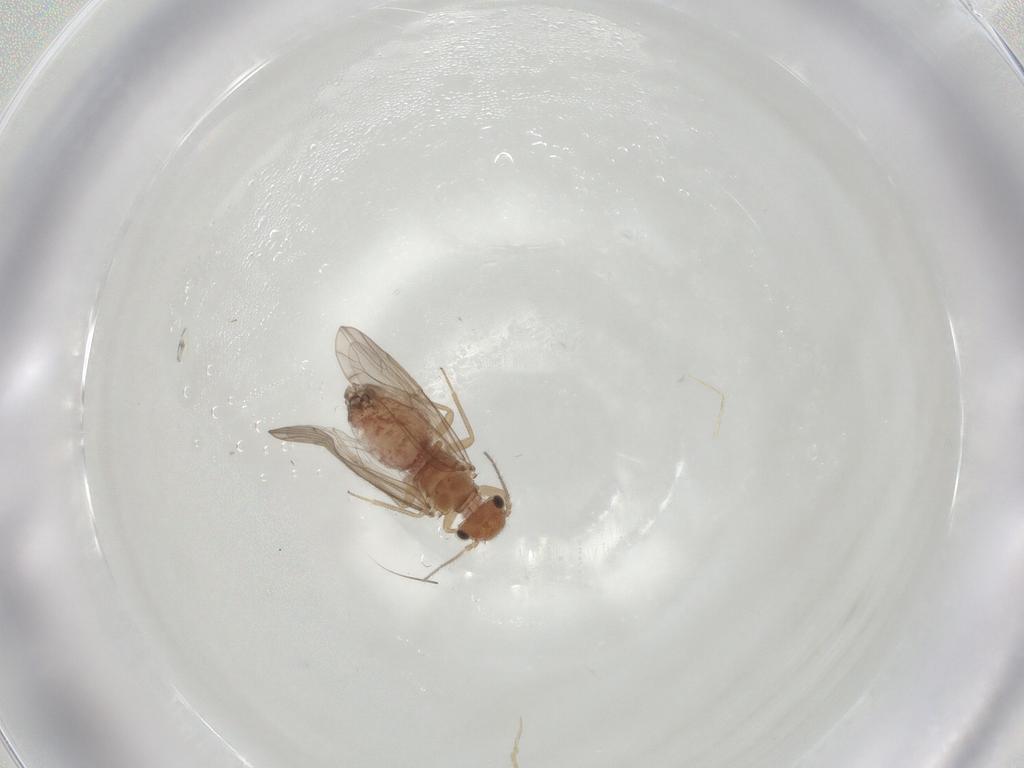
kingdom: Animalia
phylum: Arthropoda
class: Insecta
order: Psocodea
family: Ectopsocidae
